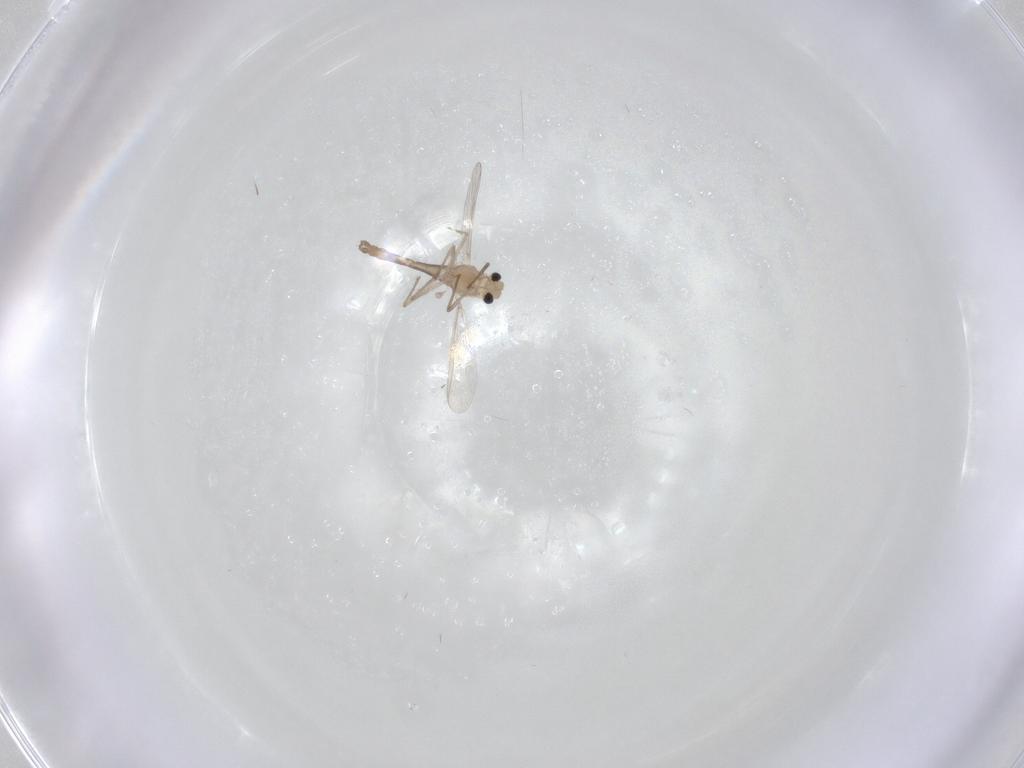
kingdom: Animalia
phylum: Arthropoda
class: Insecta
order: Diptera
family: Chironomidae
